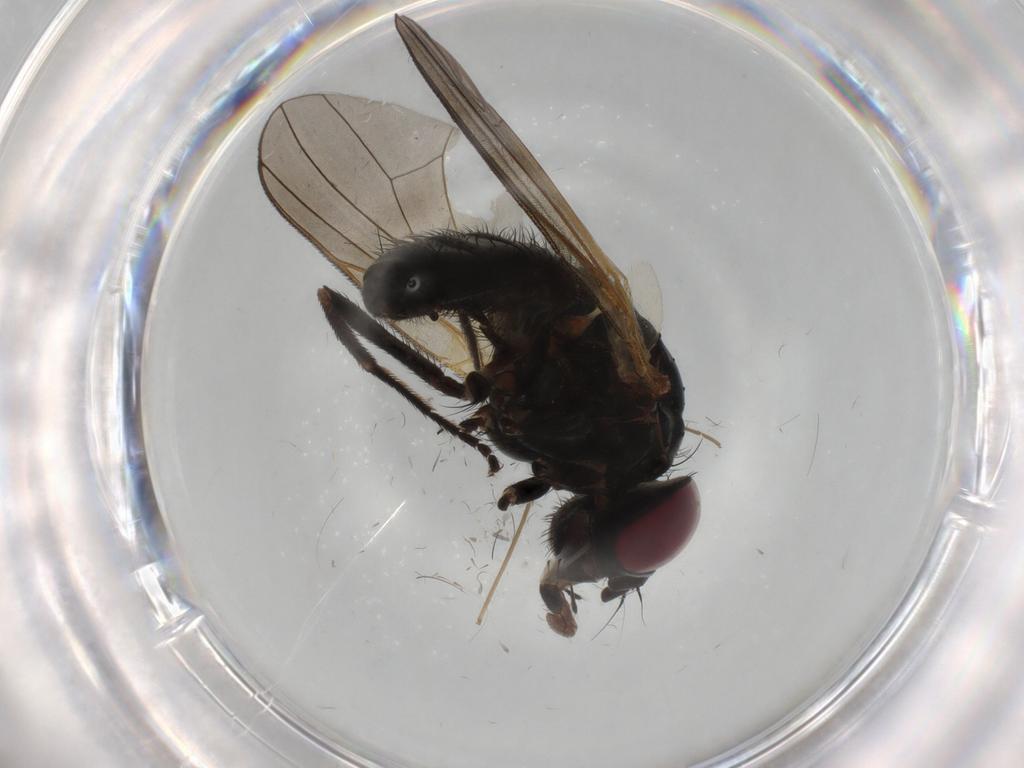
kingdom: Animalia
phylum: Arthropoda
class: Insecta
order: Diptera
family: Fannia
